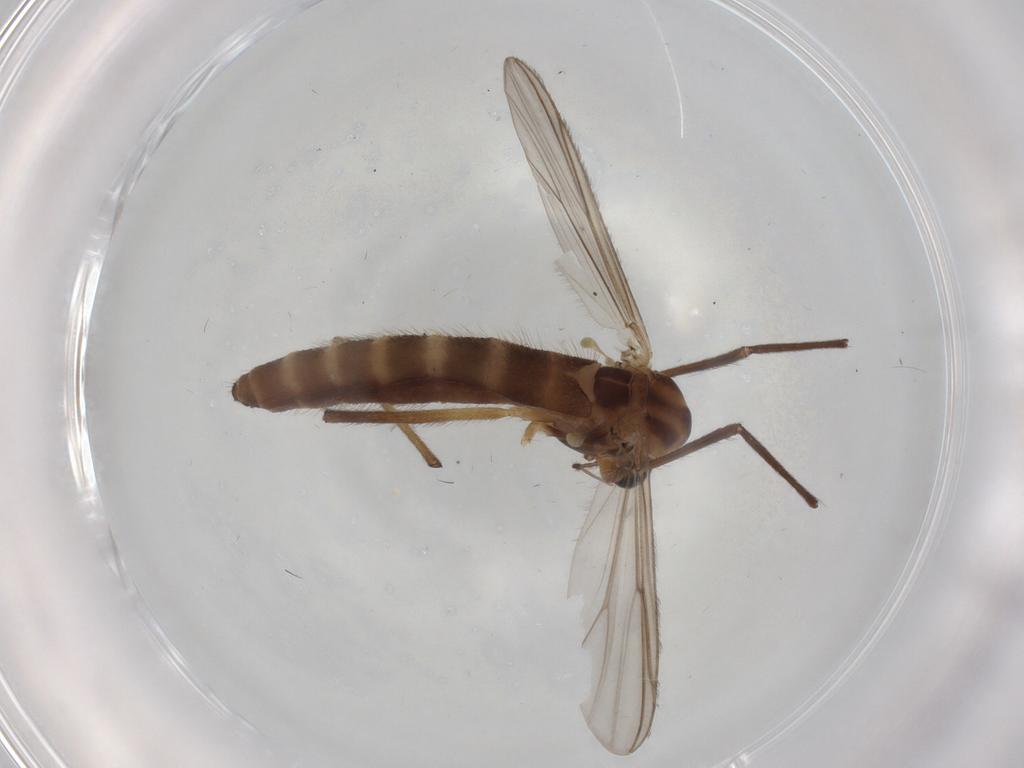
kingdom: Animalia
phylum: Arthropoda
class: Insecta
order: Diptera
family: Chironomidae
